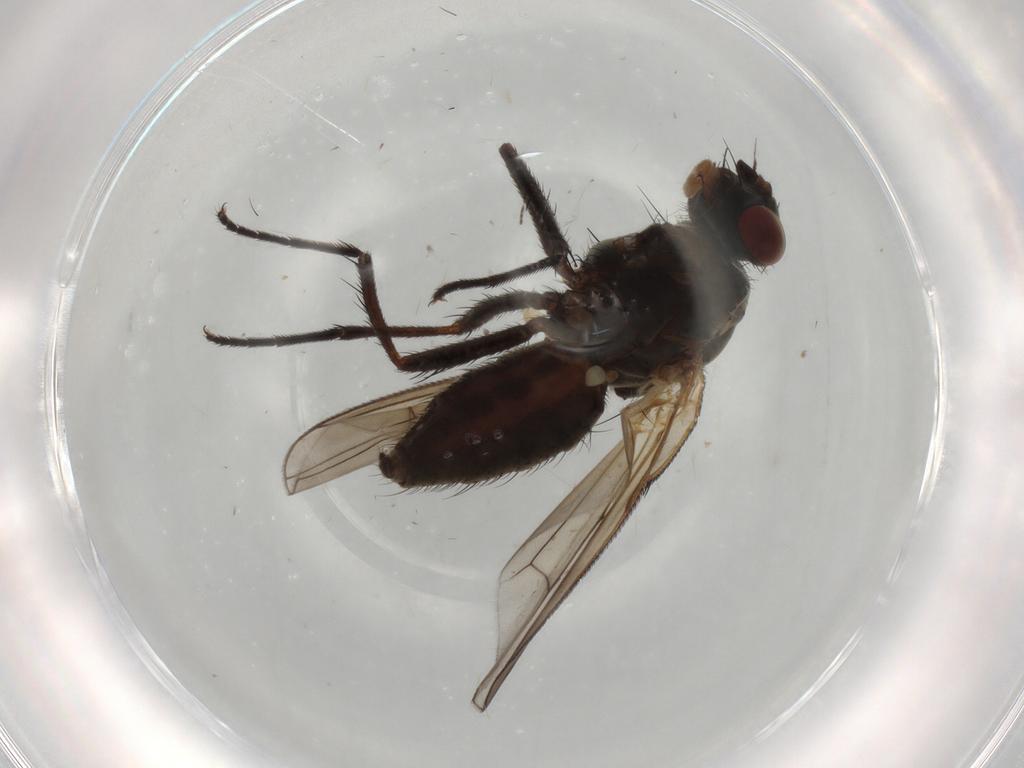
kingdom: Animalia
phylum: Arthropoda
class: Insecta
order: Diptera
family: Anthomyiidae
